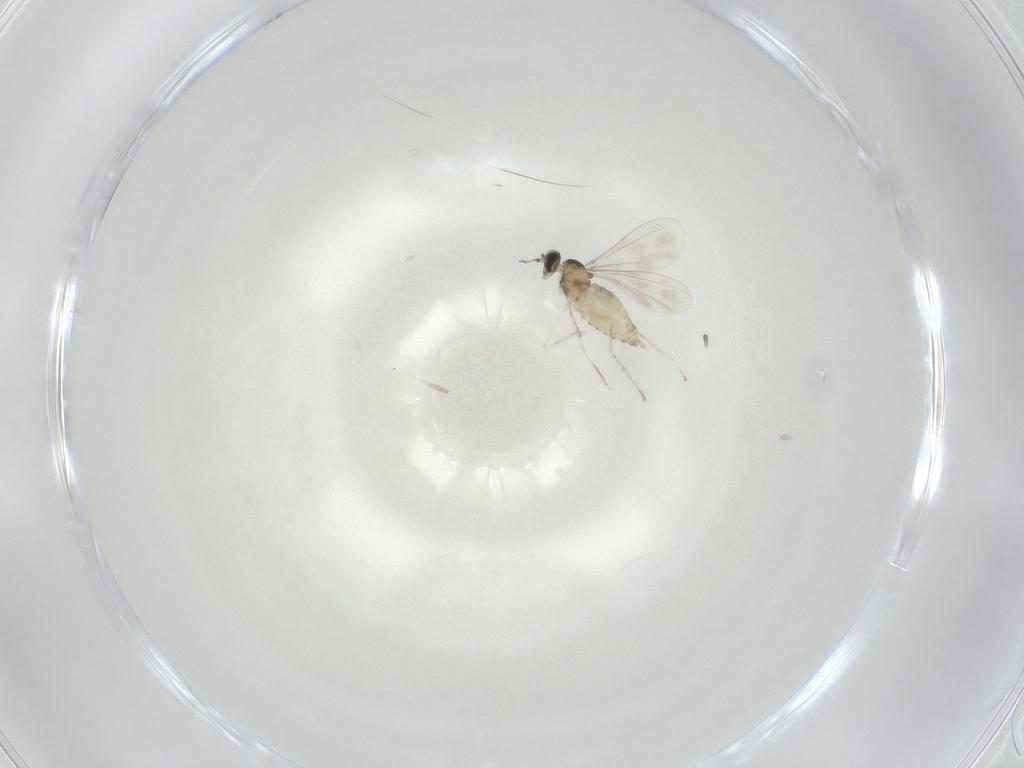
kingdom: Animalia
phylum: Arthropoda
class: Insecta
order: Diptera
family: Cecidomyiidae
